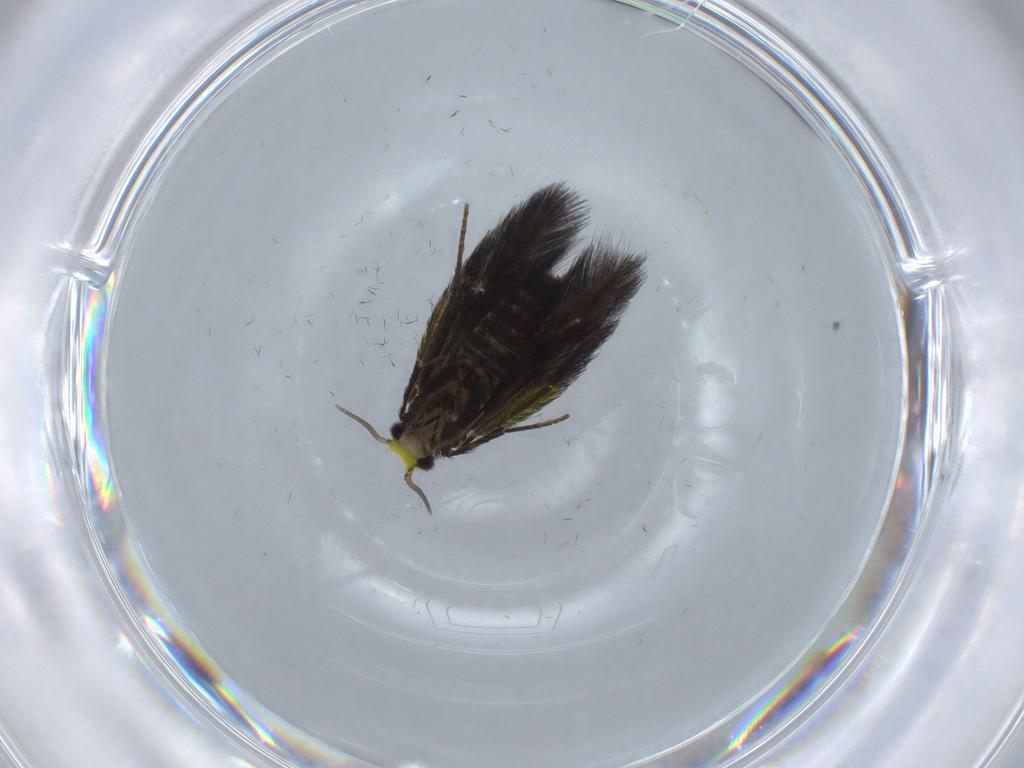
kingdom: Animalia
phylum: Arthropoda
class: Insecta
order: Trichoptera
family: Hydroptilidae
